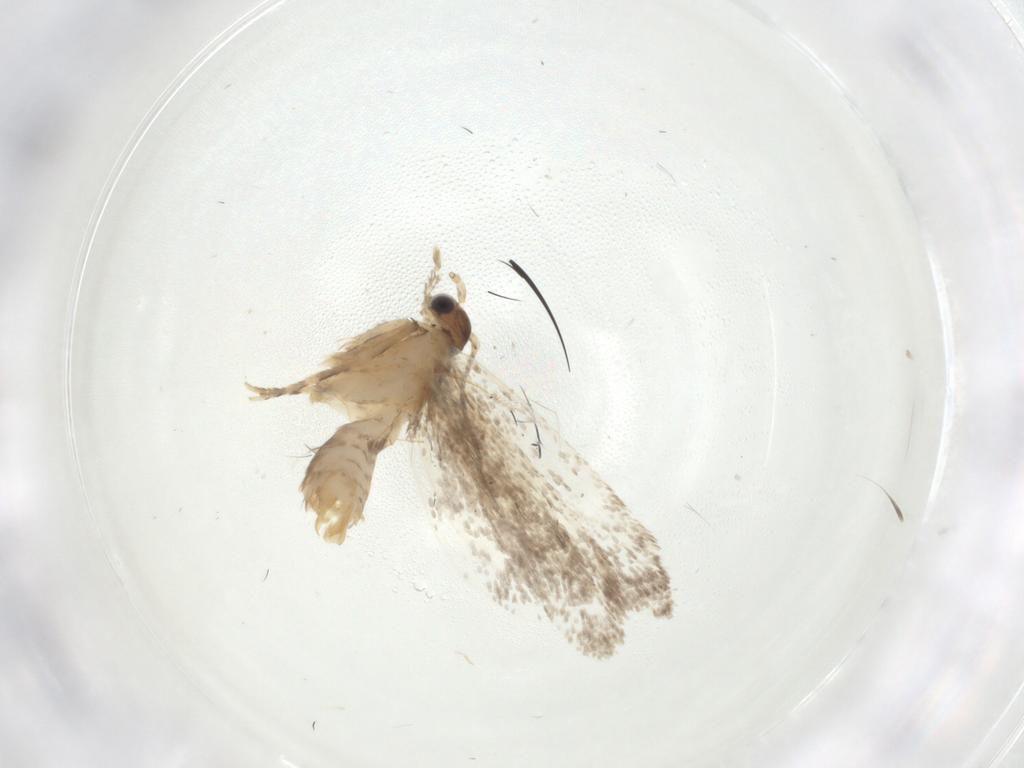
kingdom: Animalia
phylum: Arthropoda
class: Insecta
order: Lepidoptera
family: Dryadaulidae
